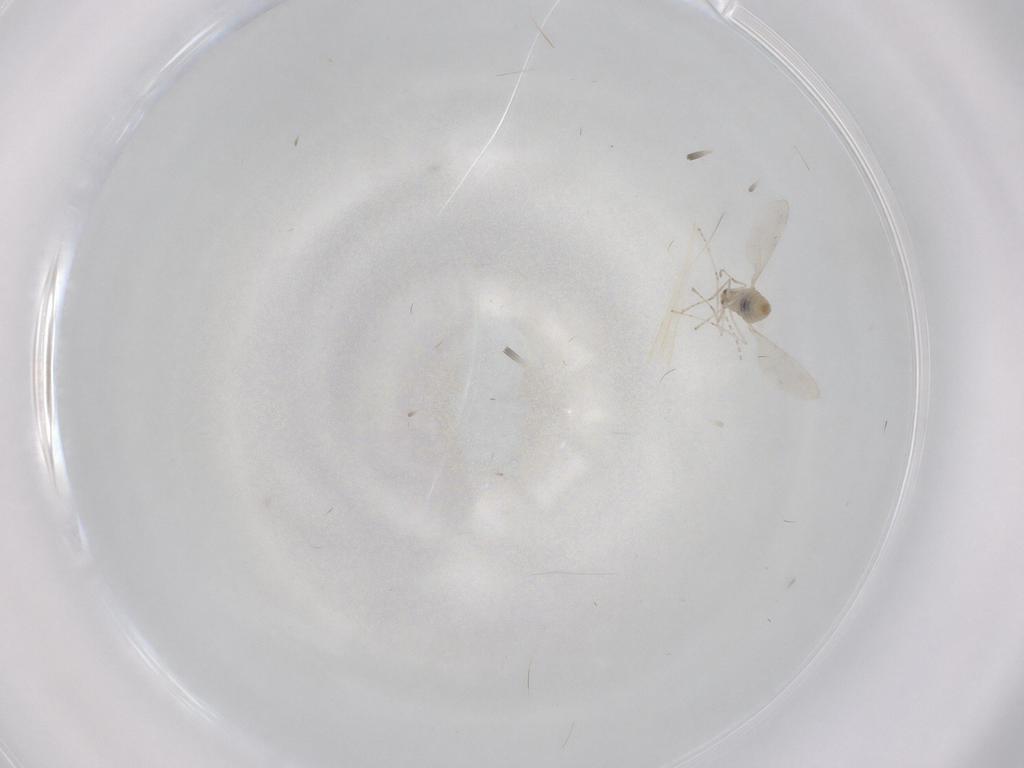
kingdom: Animalia
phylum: Arthropoda
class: Insecta
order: Diptera
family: Cecidomyiidae
